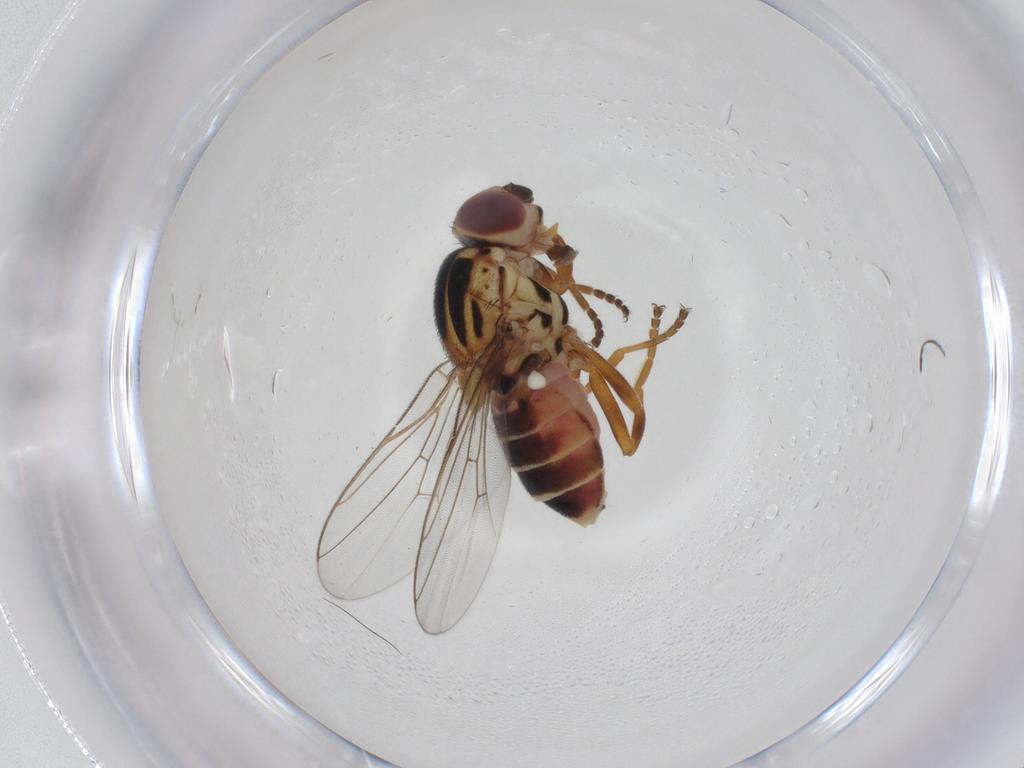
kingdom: Animalia
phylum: Arthropoda
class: Insecta
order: Diptera
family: Chloropidae
